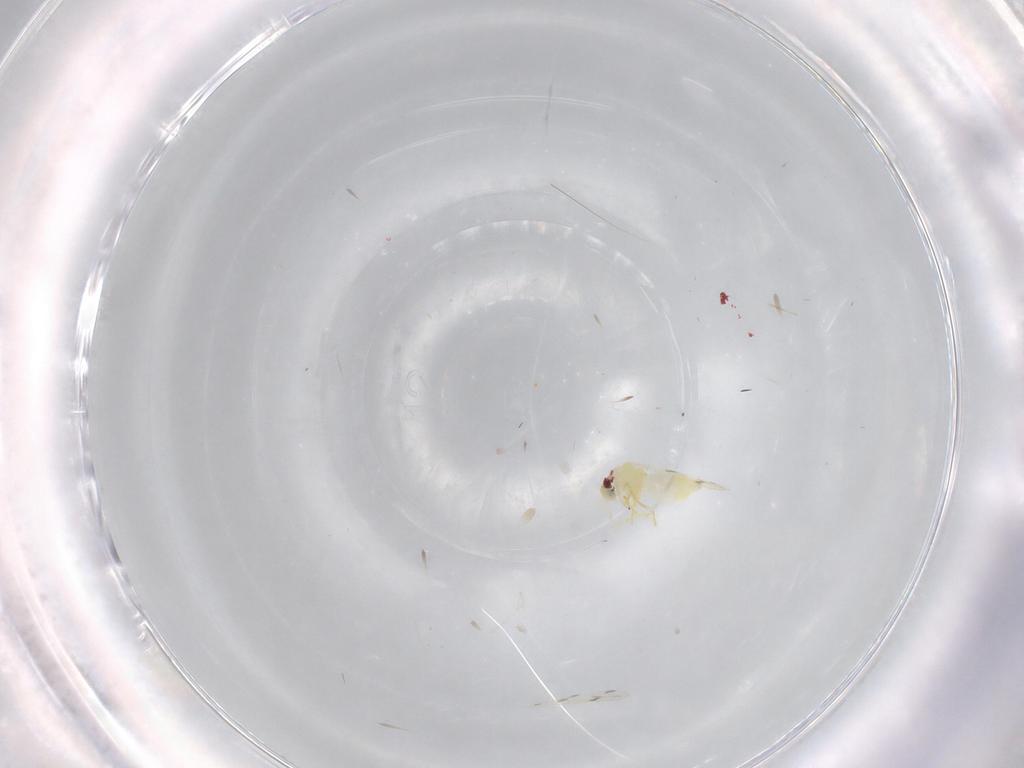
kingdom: Animalia
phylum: Arthropoda
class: Insecta
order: Hemiptera
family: Aleyrodidae
